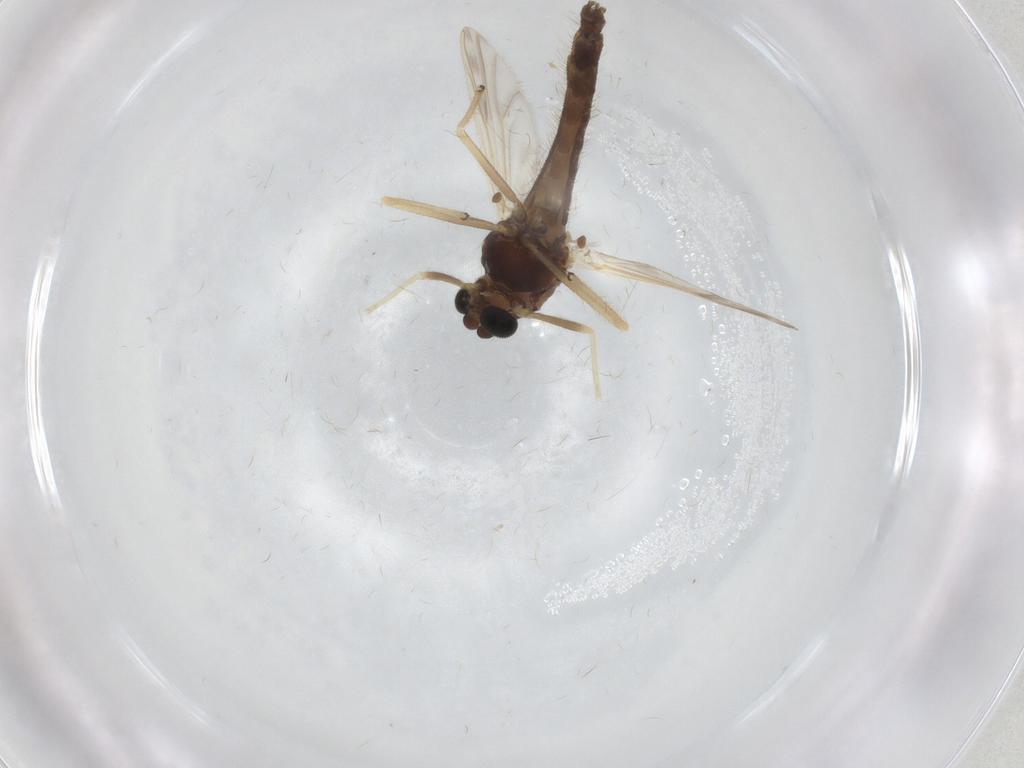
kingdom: Animalia
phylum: Arthropoda
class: Insecta
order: Diptera
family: Chironomidae
